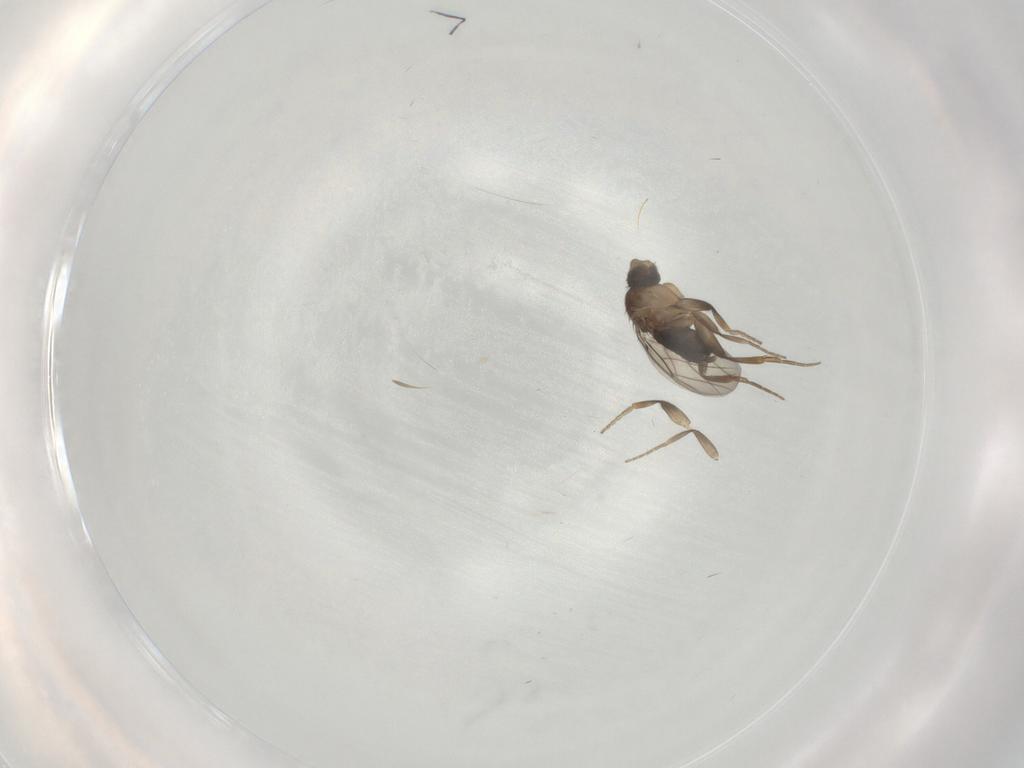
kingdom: Animalia
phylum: Arthropoda
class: Insecta
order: Diptera
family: Phoridae
